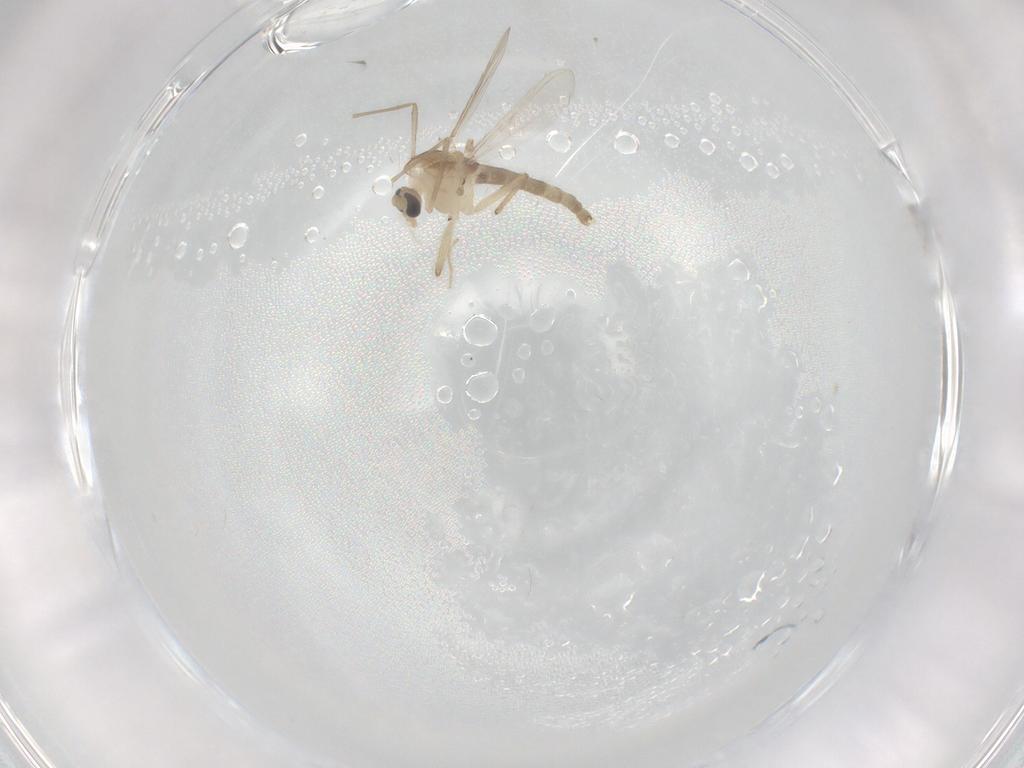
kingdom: Animalia
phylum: Arthropoda
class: Insecta
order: Diptera
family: Chironomidae
